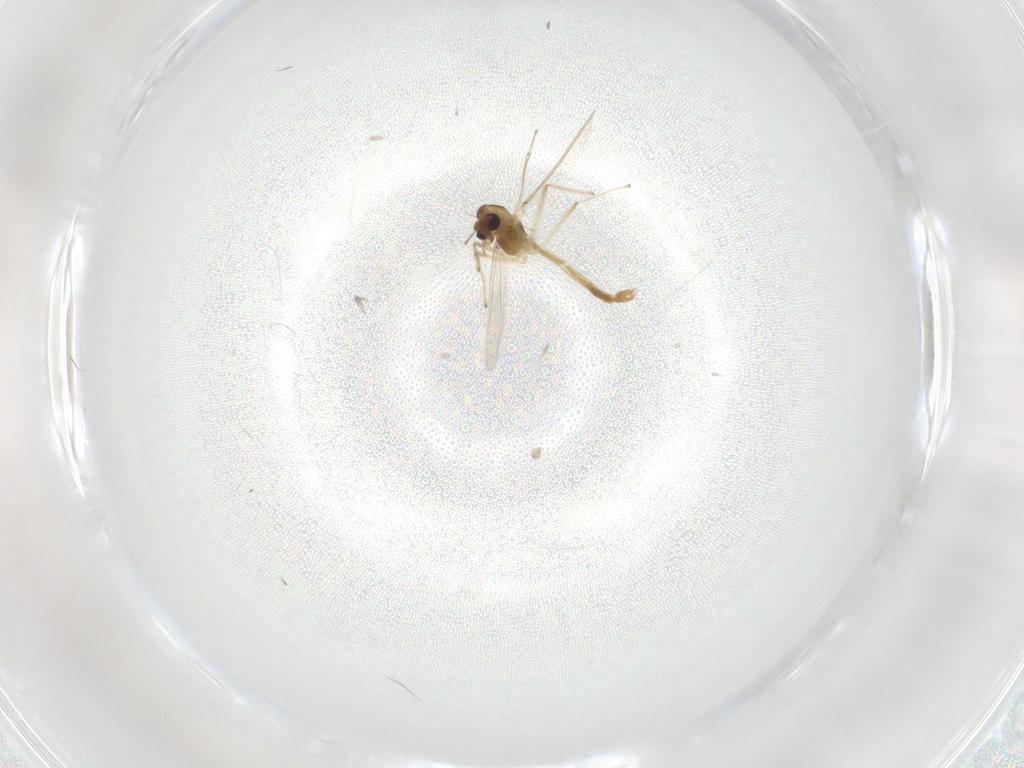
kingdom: Animalia
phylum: Arthropoda
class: Insecta
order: Diptera
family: Chironomidae
